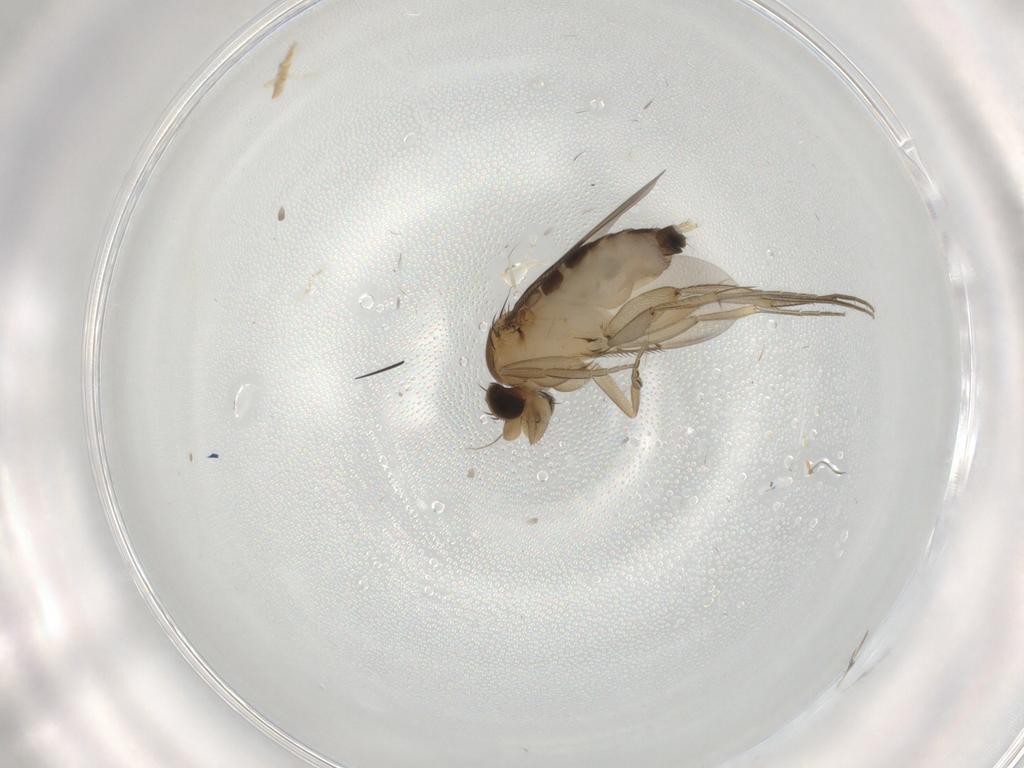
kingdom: Animalia
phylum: Arthropoda
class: Insecta
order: Diptera
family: Phoridae
